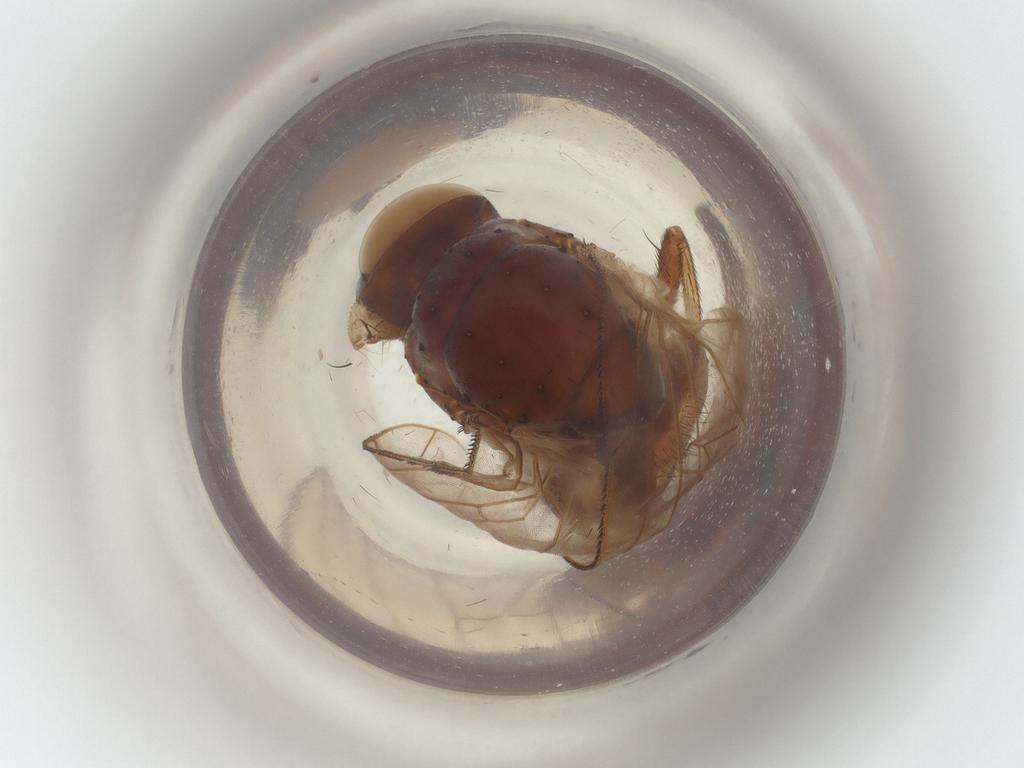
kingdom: Animalia
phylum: Arthropoda
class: Insecta
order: Diptera
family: Muscidae
